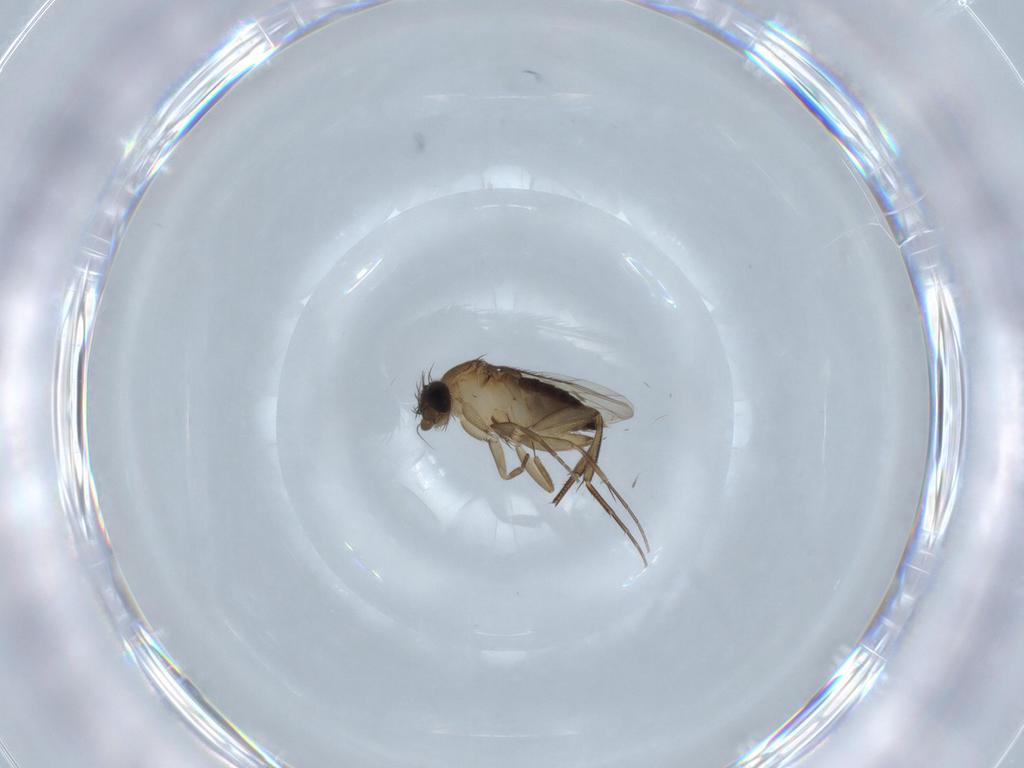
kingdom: Animalia
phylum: Arthropoda
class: Insecta
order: Diptera
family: Phoridae
